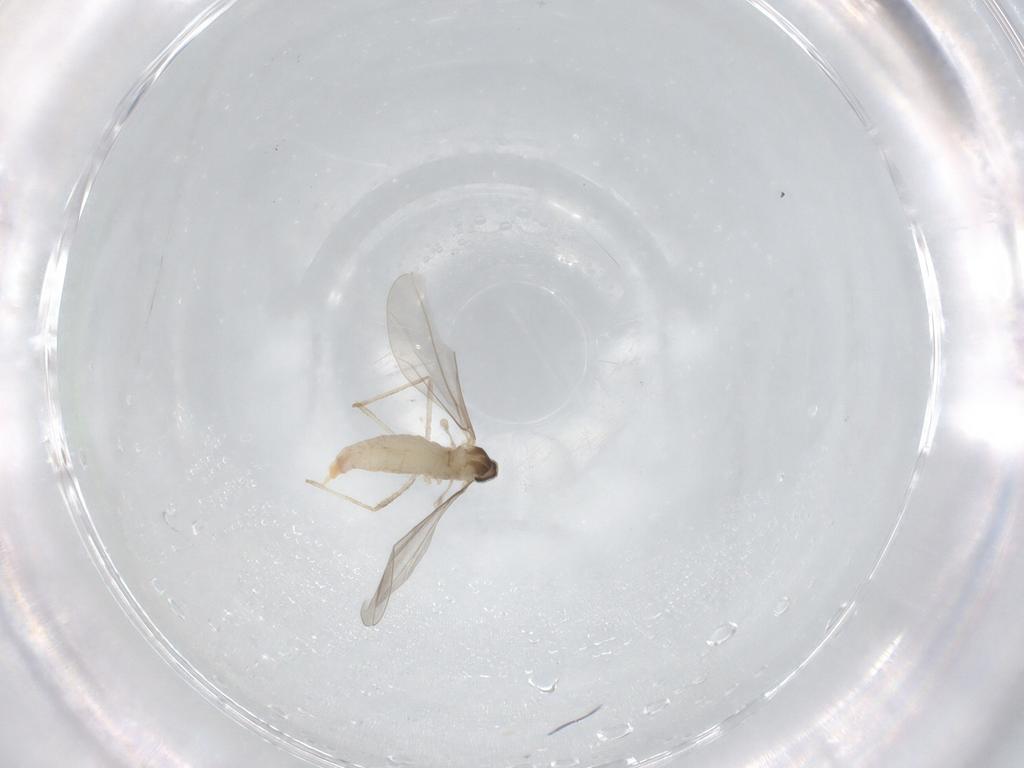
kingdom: Animalia
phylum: Arthropoda
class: Insecta
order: Diptera
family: Cecidomyiidae
